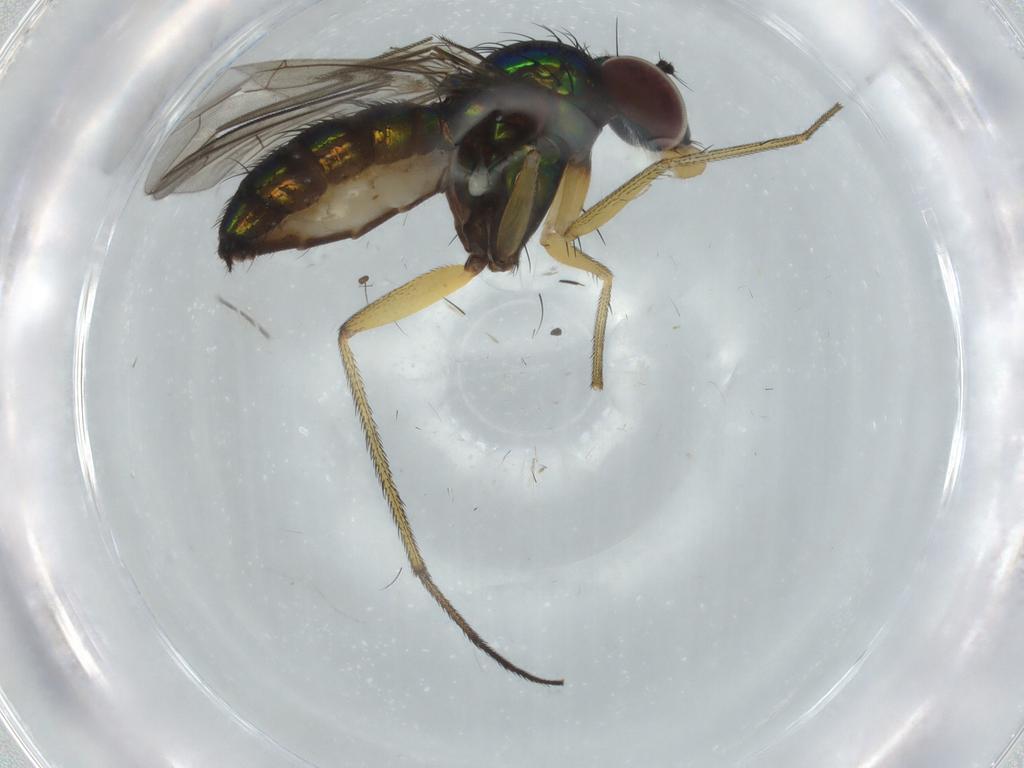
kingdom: Animalia
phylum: Arthropoda
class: Insecta
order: Diptera
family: Dolichopodidae
